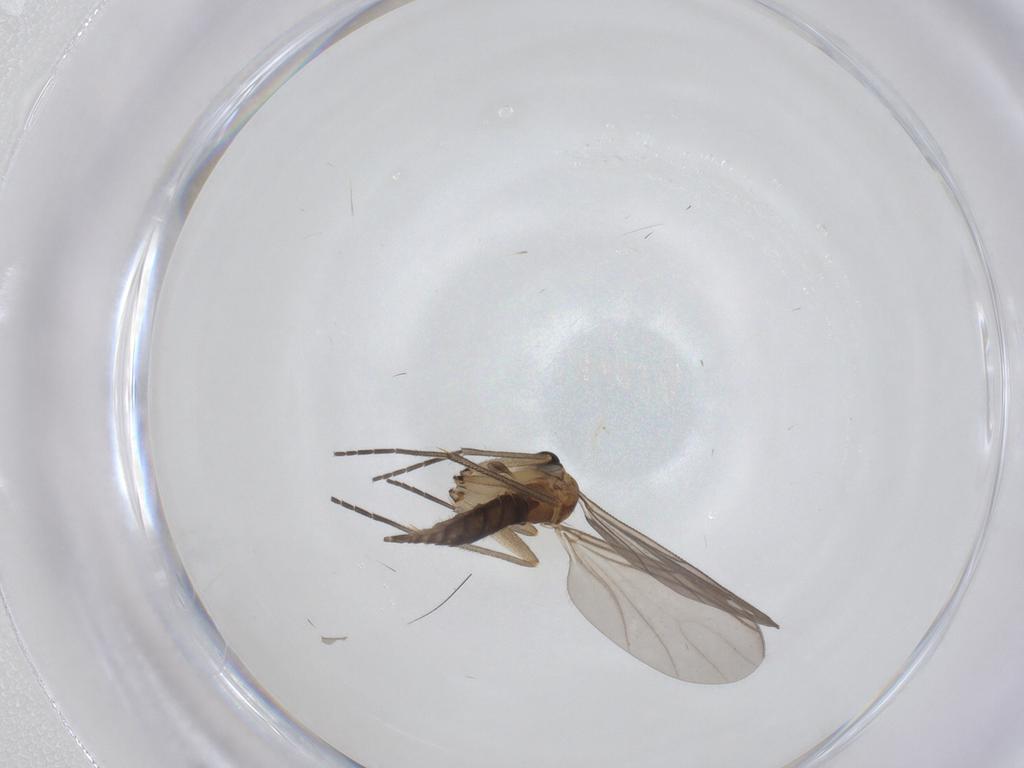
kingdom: Animalia
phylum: Arthropoda
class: Insecta
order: Diptera
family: Sciaridae
